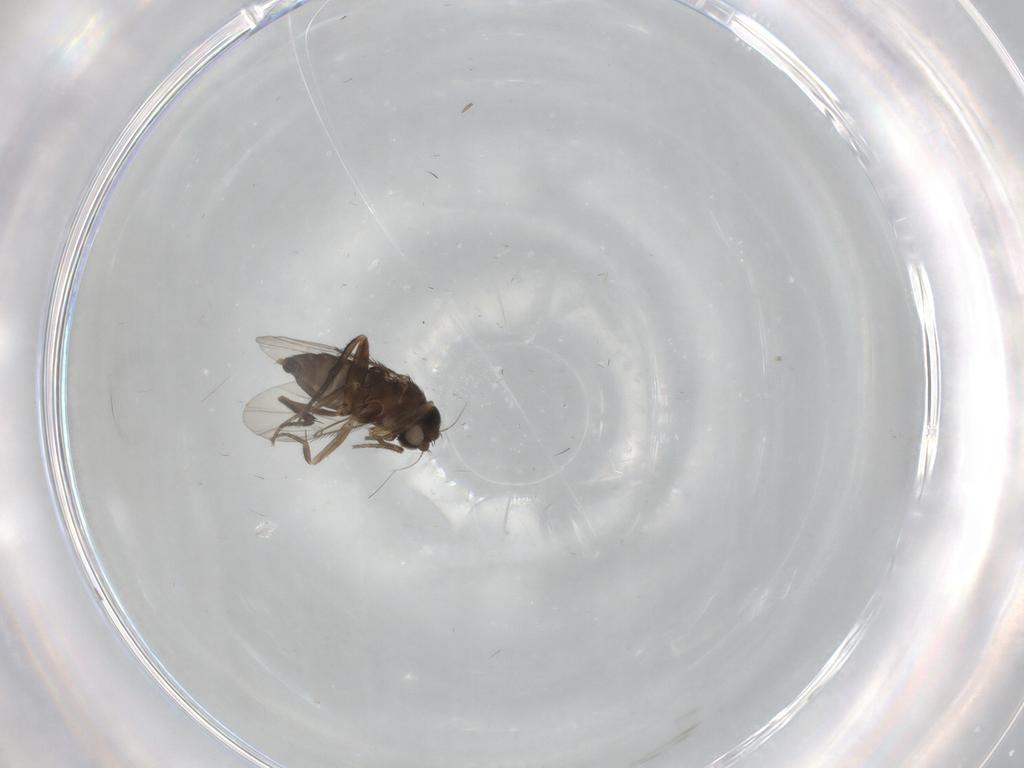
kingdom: Animalia
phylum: Arthropoda
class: Insecta
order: Diptera
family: Phoridae
